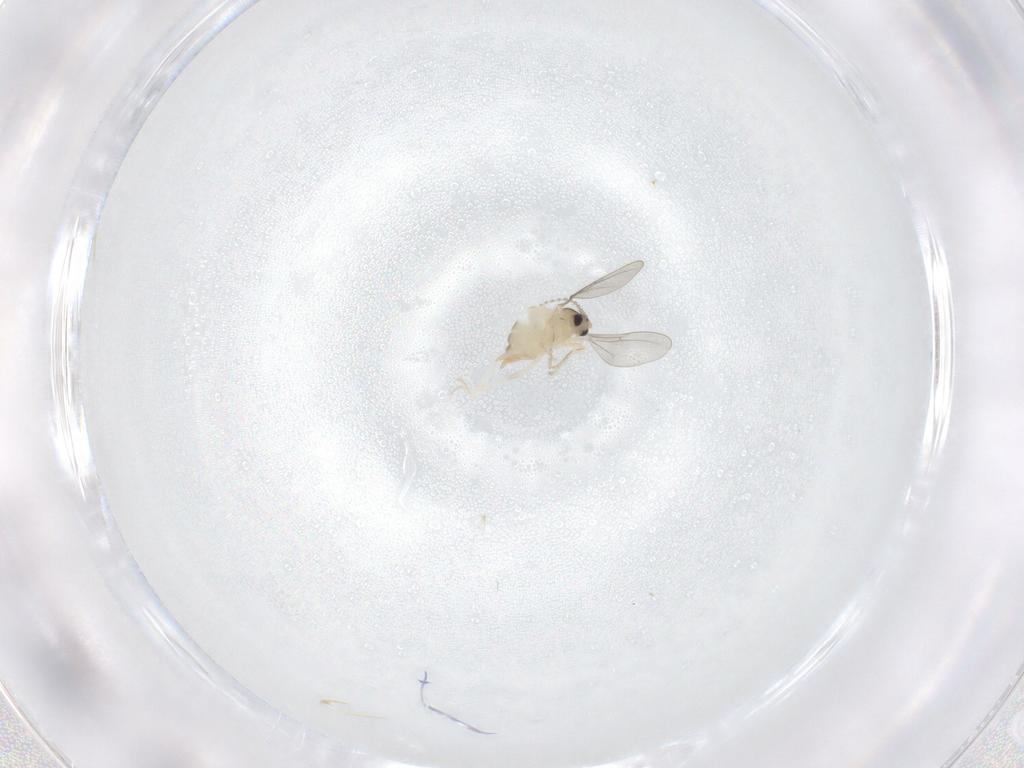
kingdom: Animalia
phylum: Arthropoda
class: Insecta
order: Diptera
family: Cecidomyiidae
